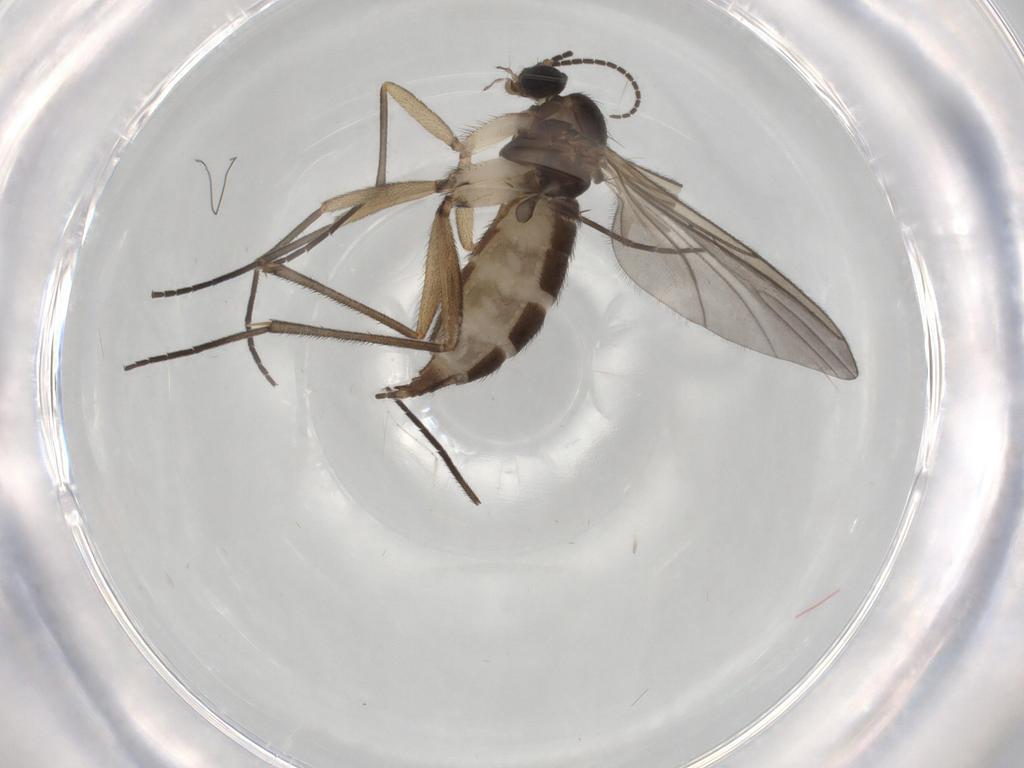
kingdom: Animalia
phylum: Arthropoda
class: Insecta
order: Diptera
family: Sciaridae
